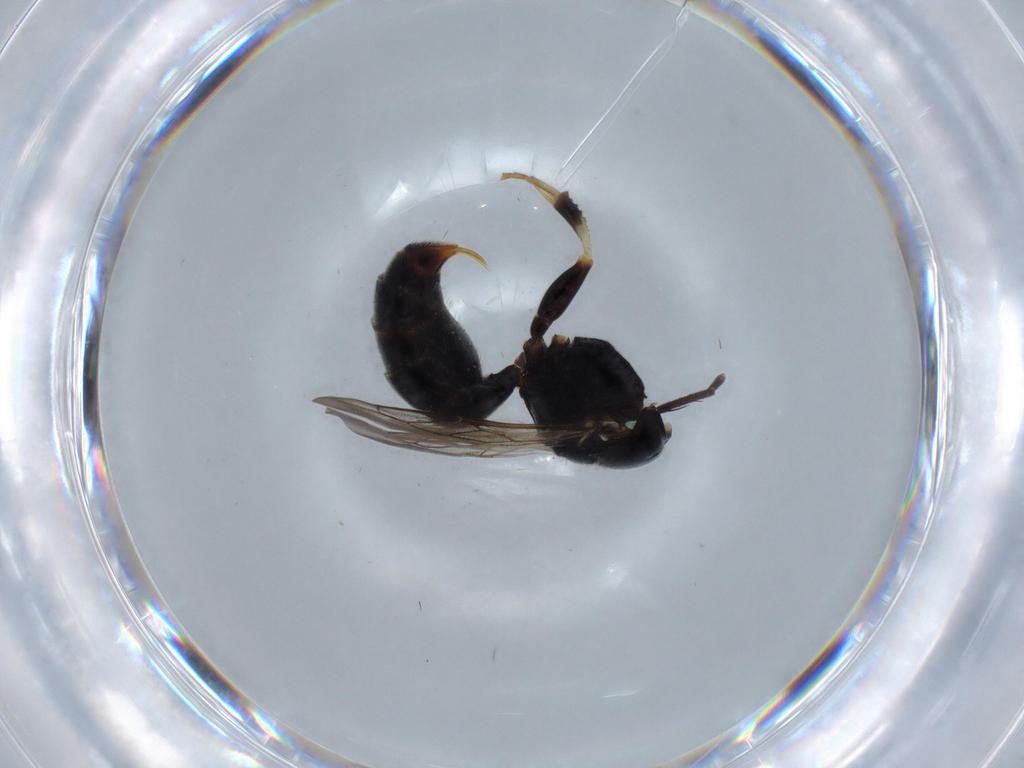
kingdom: Animalia
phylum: Arthropoda
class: Insecta
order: Hymenoptera
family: Crabronidae
